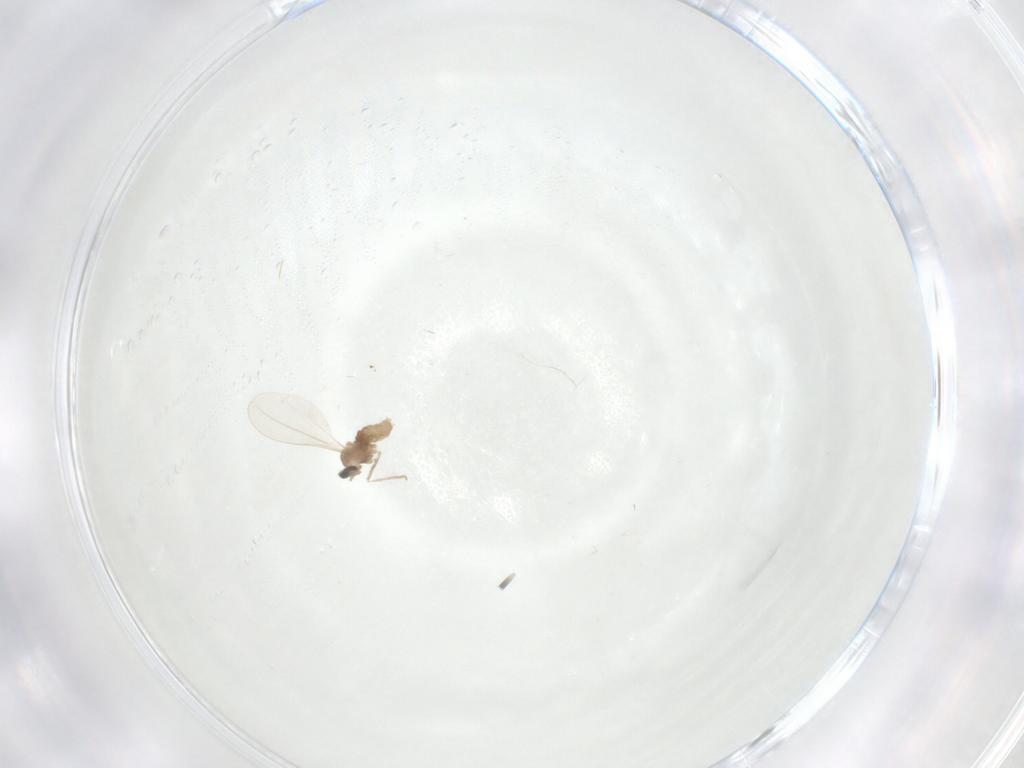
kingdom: Animalia
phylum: Arthropoda
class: Insecta
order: Diptera
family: Cecidomyiidae
